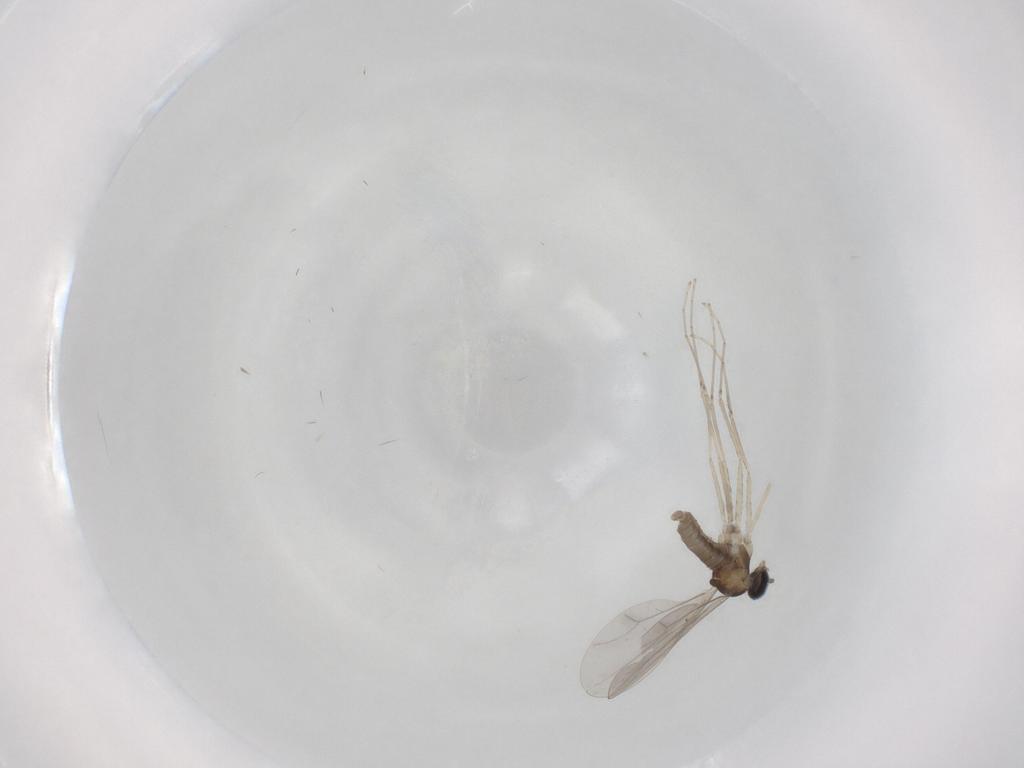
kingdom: Animalia
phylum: Arthropoda
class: Insecta
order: Diptera
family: Cecidomyiidae
